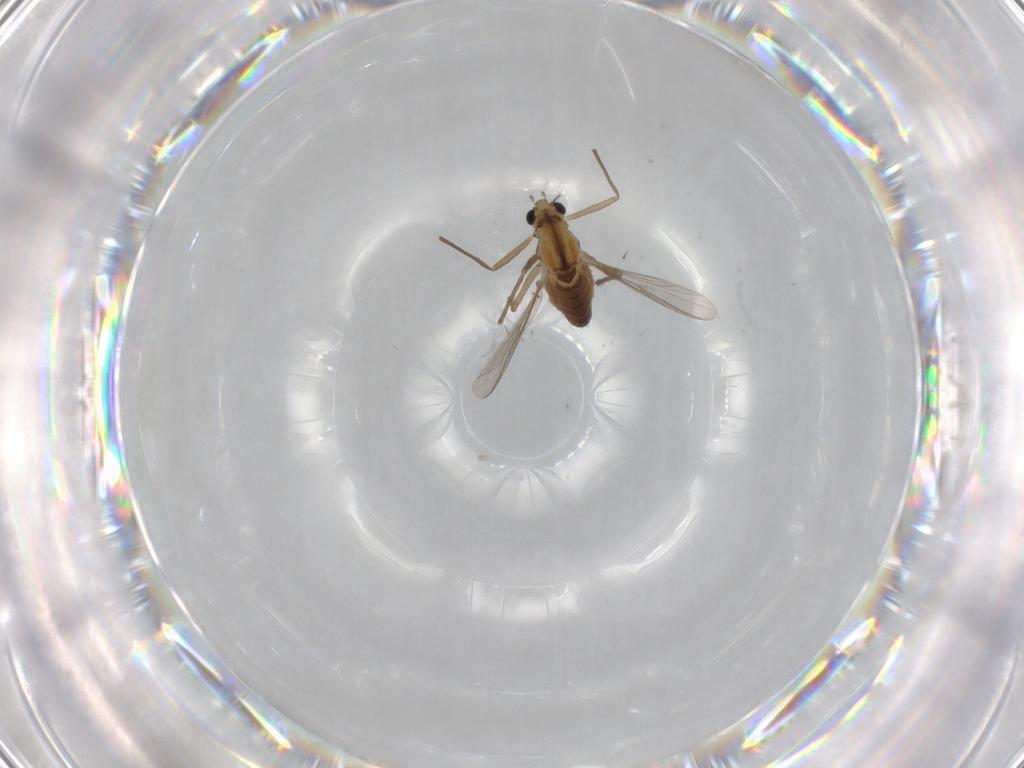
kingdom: Animalia
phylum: Arthropoda
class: Insecta
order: Diptera
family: Chironomidae
